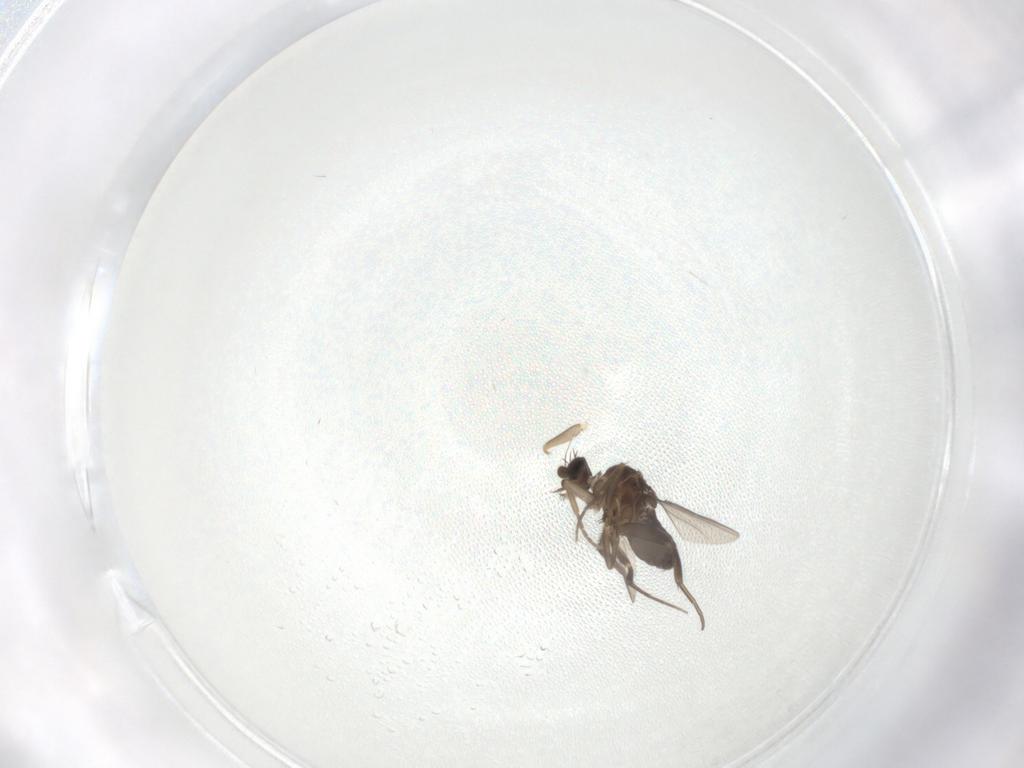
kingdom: Animalia
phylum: Arthropoda
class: Insecta
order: Diptera
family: Phoridae
